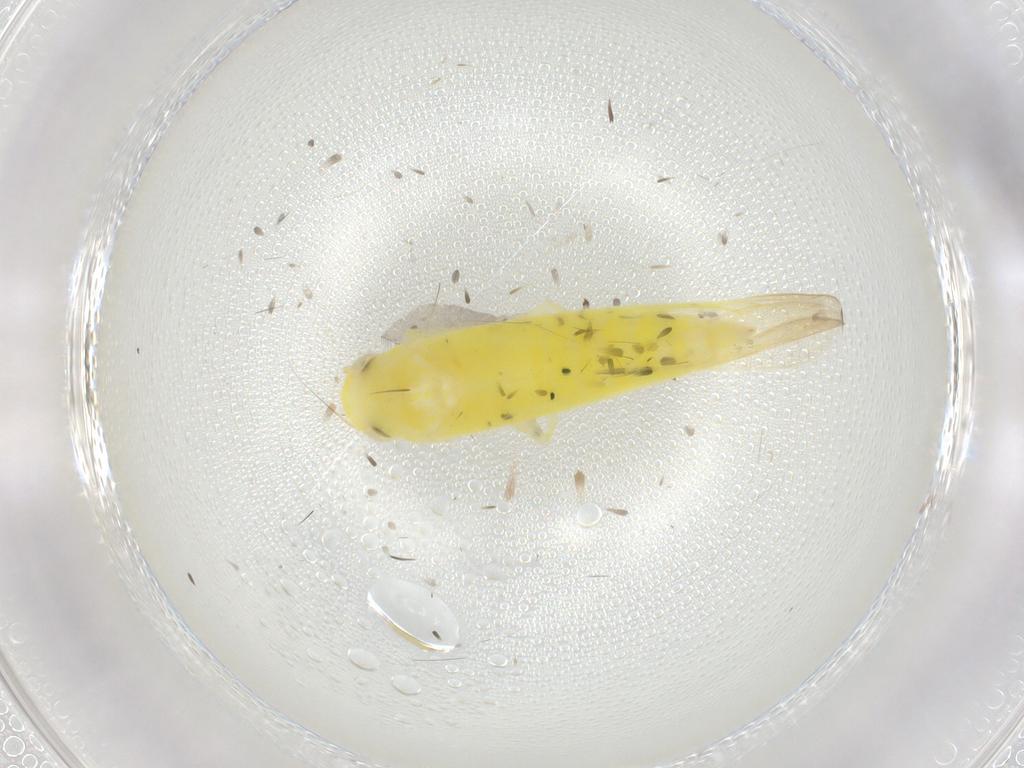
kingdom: Animalia
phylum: Arthropoda
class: Insecta
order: Hemiptera
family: Cicadellidae
